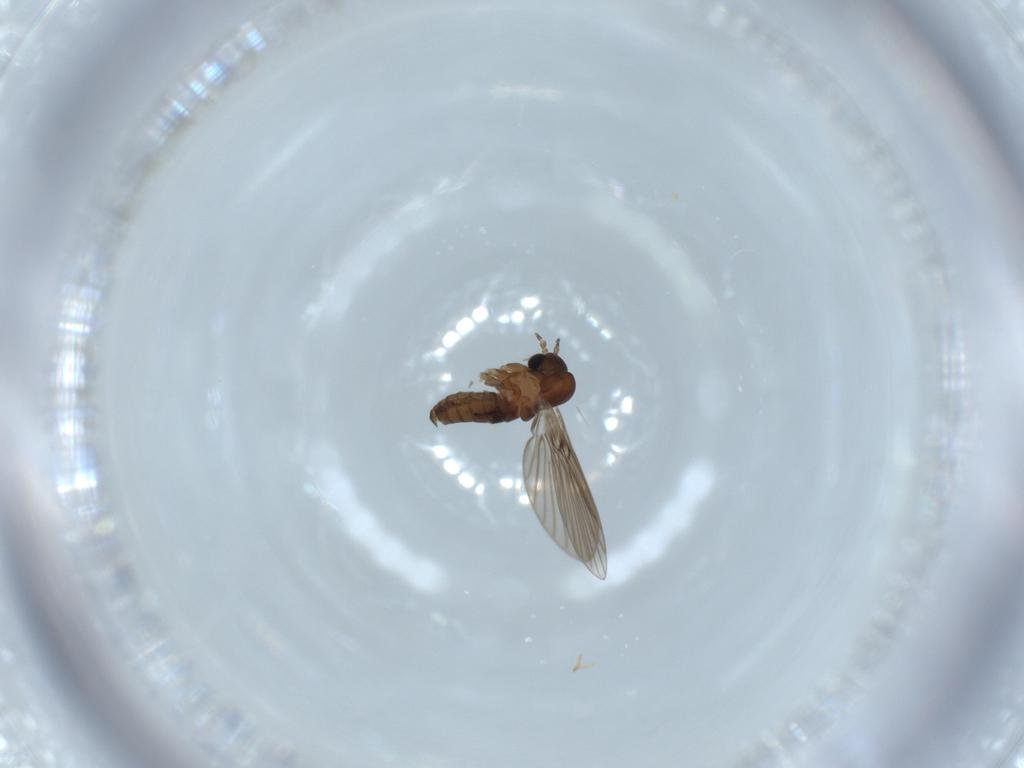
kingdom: Animalia
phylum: Arthropoda
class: Insecta
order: Diptera
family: Psychodidae
